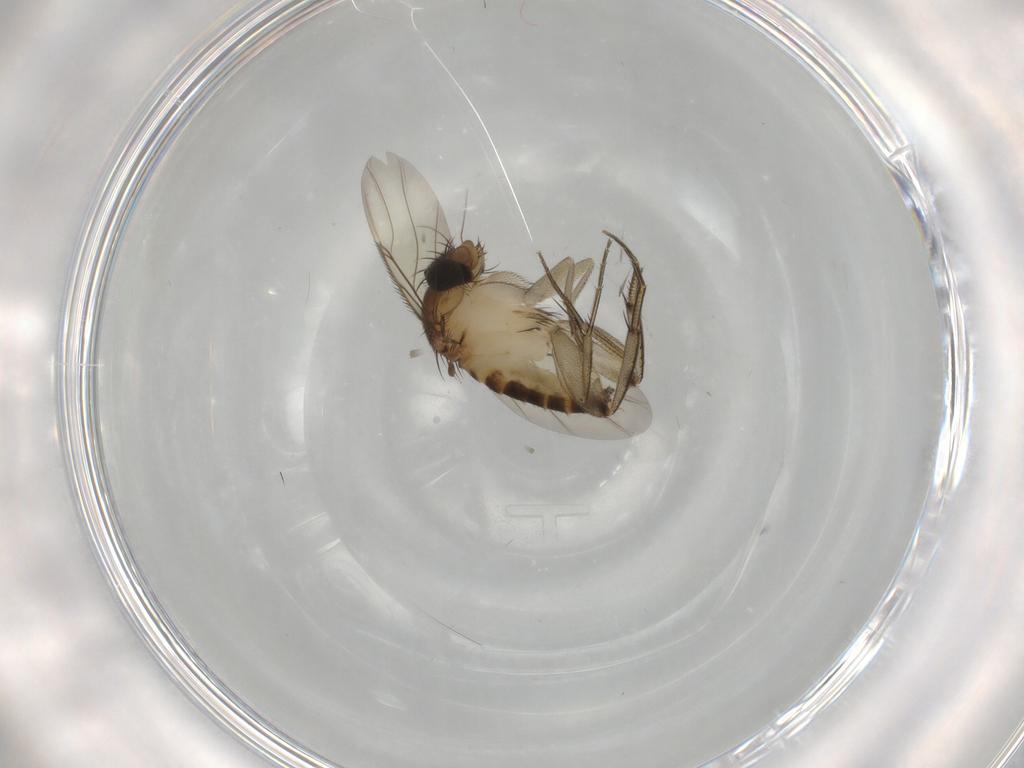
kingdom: Animalia
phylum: Arthropoda
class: Insecta
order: Diptera
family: Phoridae
